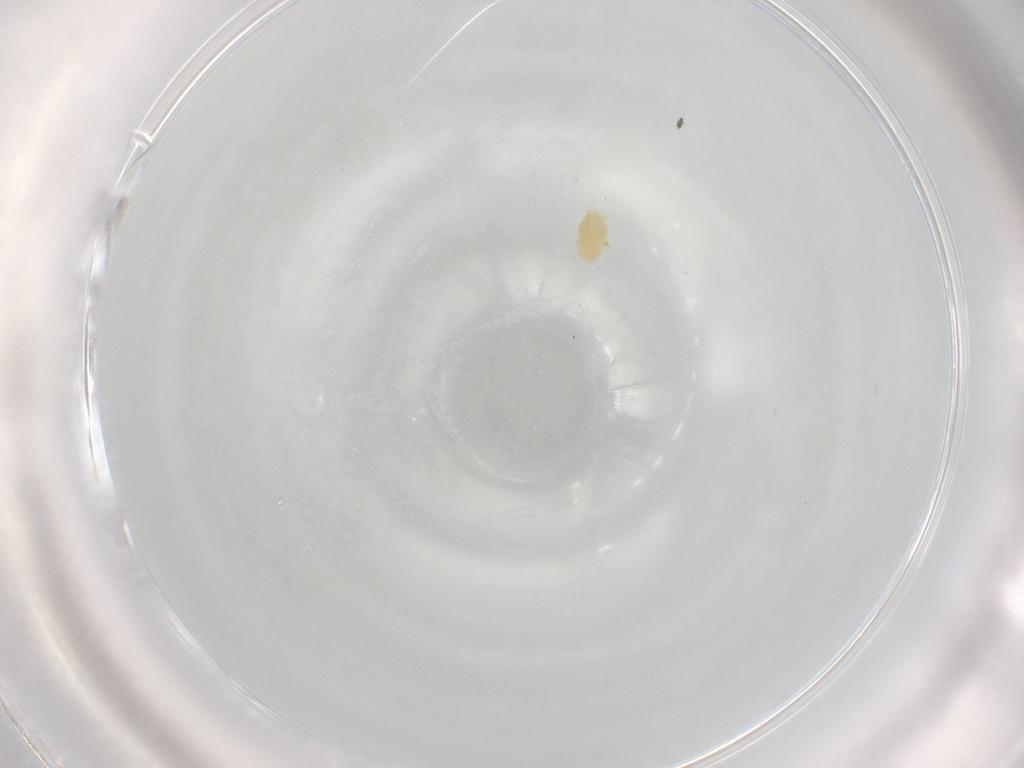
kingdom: Animalia
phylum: Arthropoda
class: Arachnida
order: Trombidiformes
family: Eupodidae
